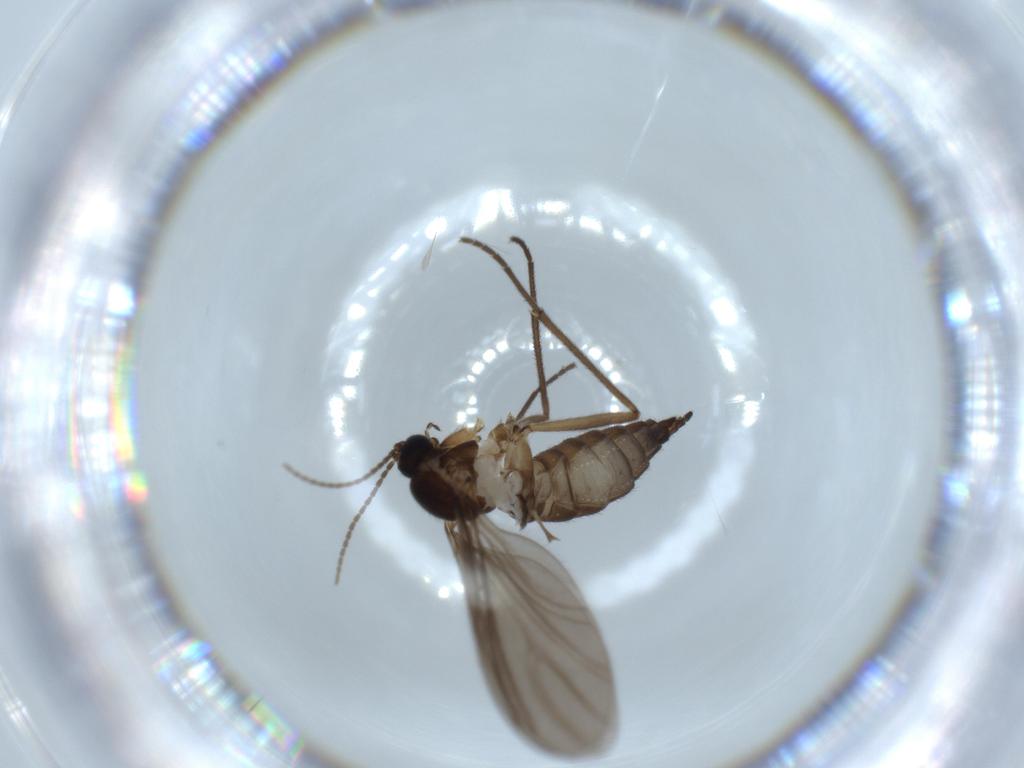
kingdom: Animalia
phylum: Arthropoda
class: Insecta
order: Diptera
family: Sciaridae
